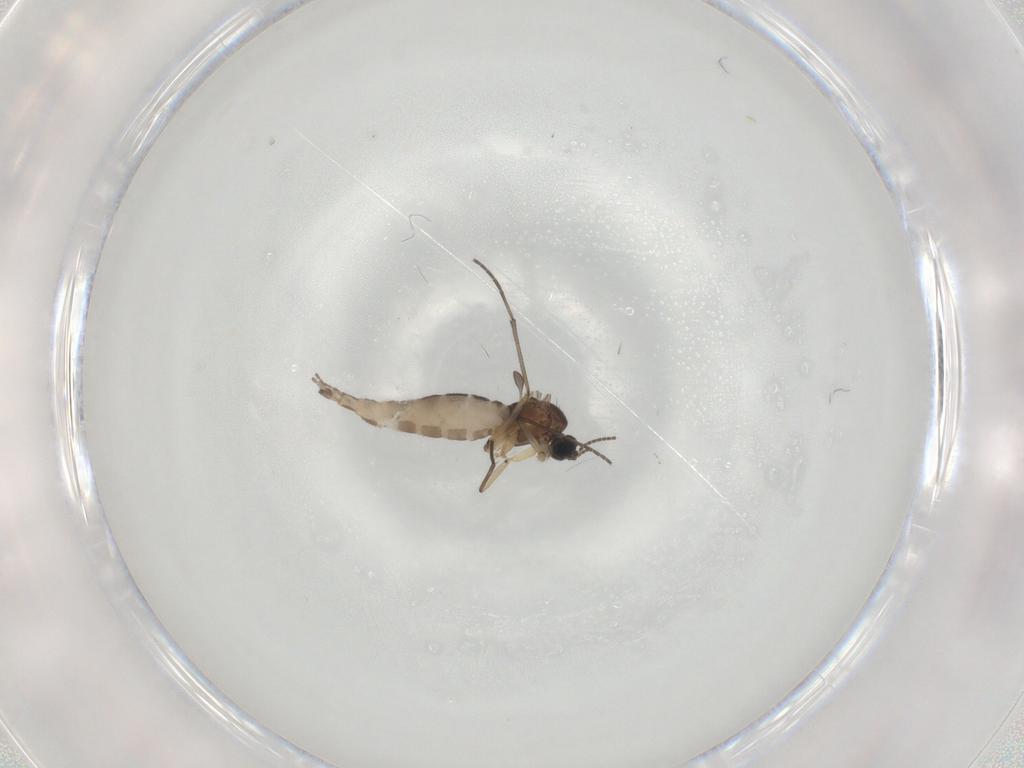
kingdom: Animalia
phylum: Arthropoda
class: Insecta
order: Diptera
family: Sciaridae
